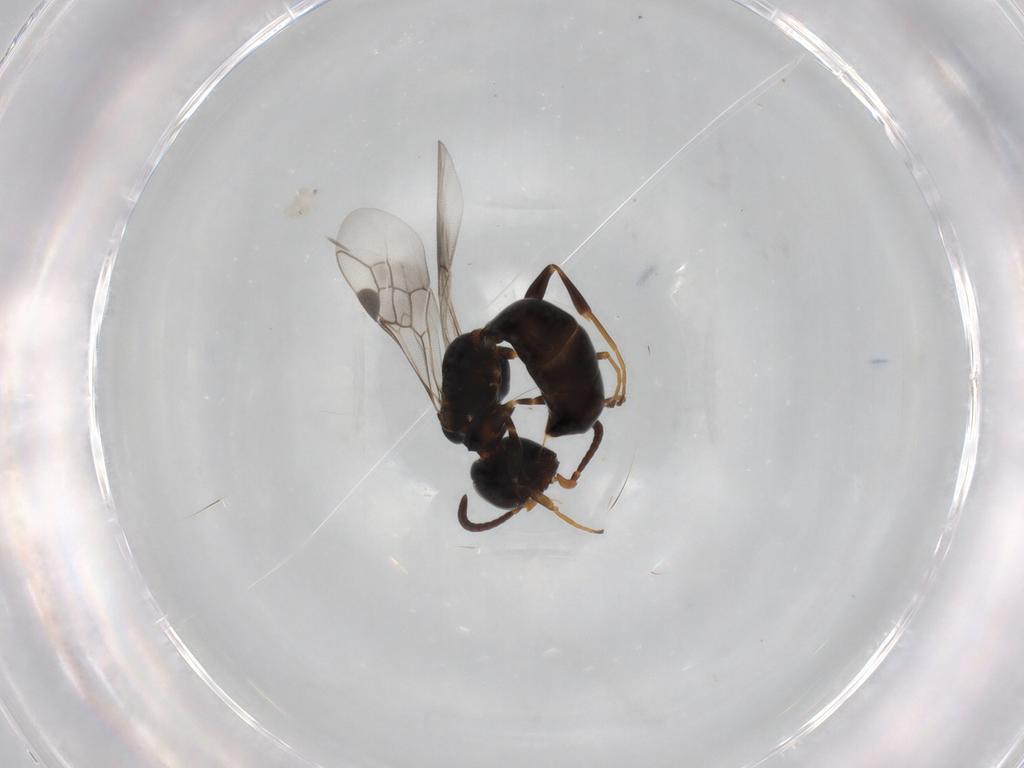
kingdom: Animalia
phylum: Arthropoda
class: Insecta
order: Hymenoptera
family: Crabronidae
